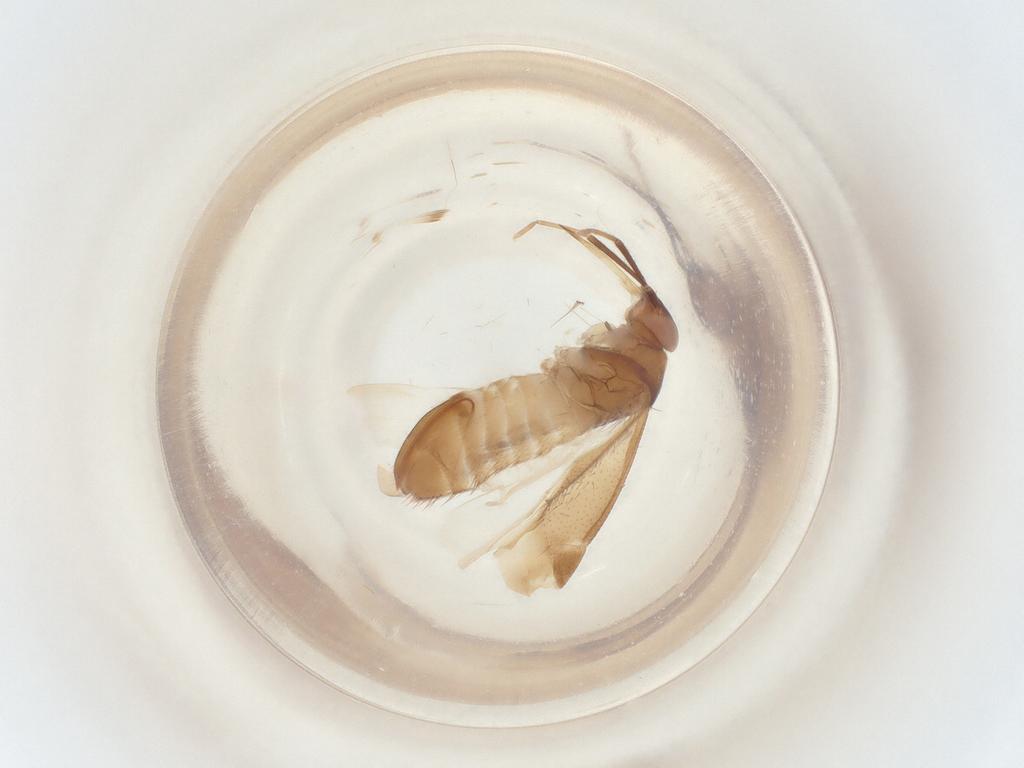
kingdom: Animalia
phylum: Arthropoda
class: Insecta
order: Hemiptera
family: Miridae
